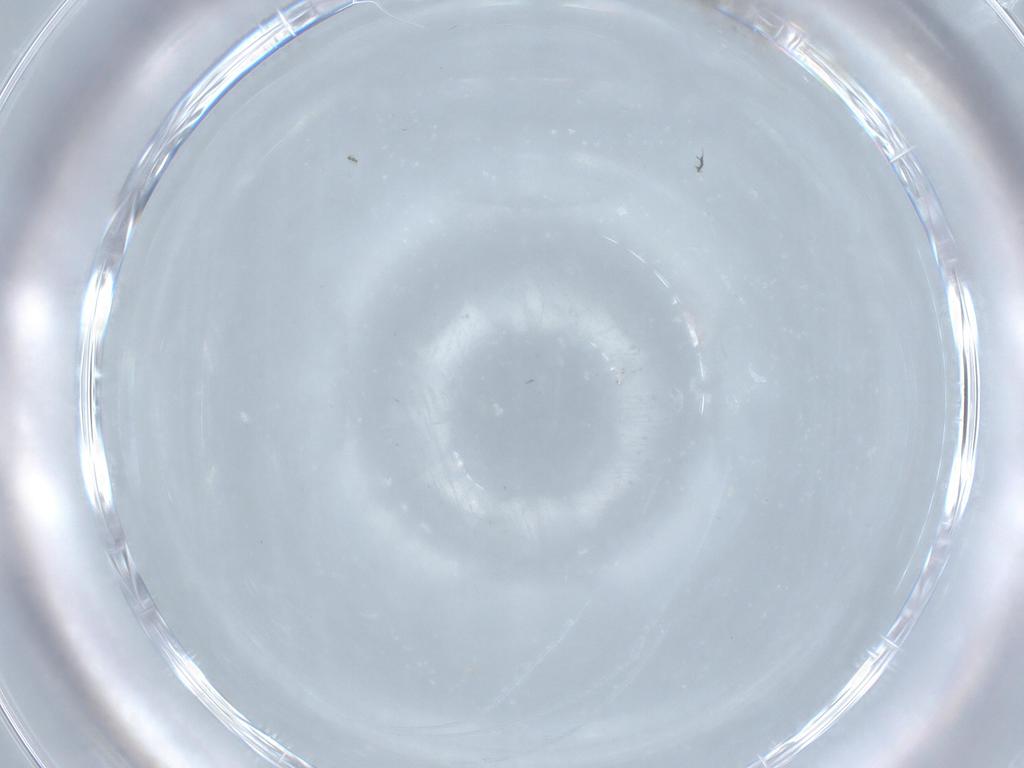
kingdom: Animalia
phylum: Arthropoda
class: Insecta
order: Diptera
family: Cecidomyiidae
